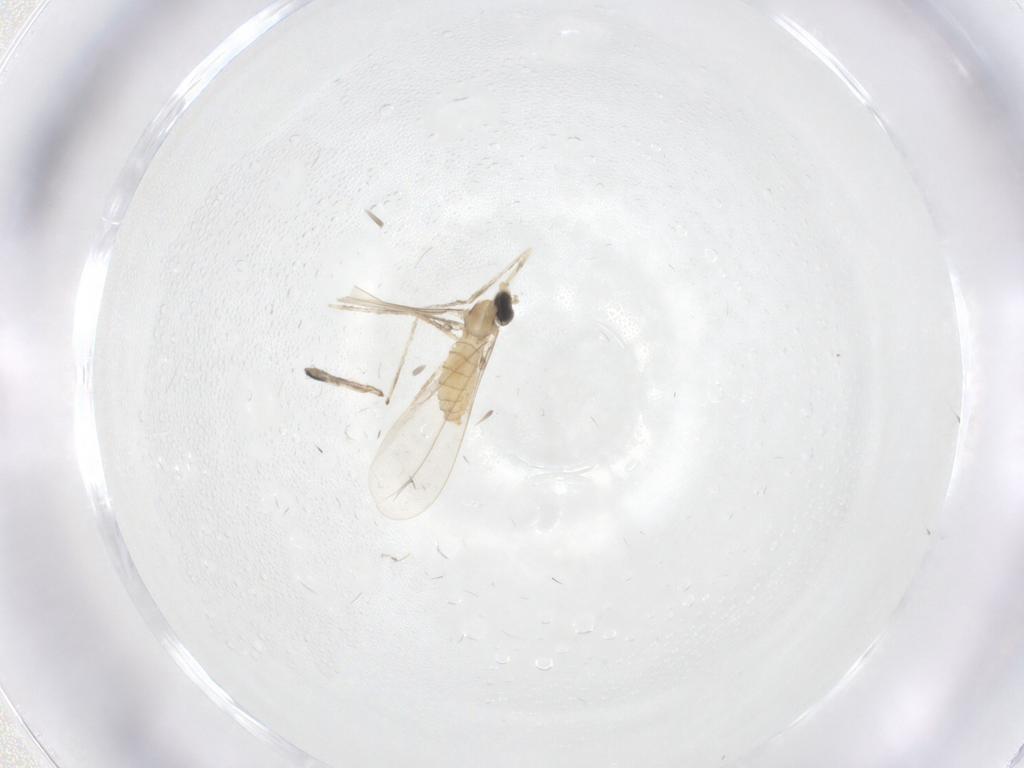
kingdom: Animalia
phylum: Arthropoda
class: Insecta
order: Diptera
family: Cecidomyiidae
